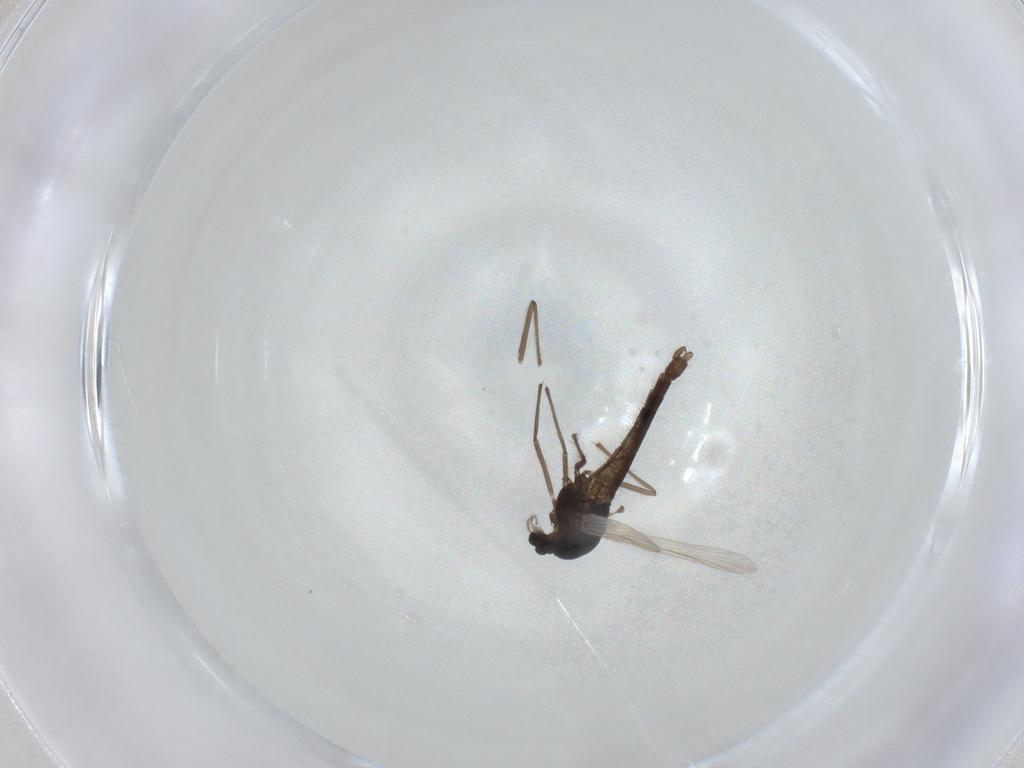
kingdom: Animalia
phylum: Arthropoda
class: Insecta
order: Diptera
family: Chironomidae
